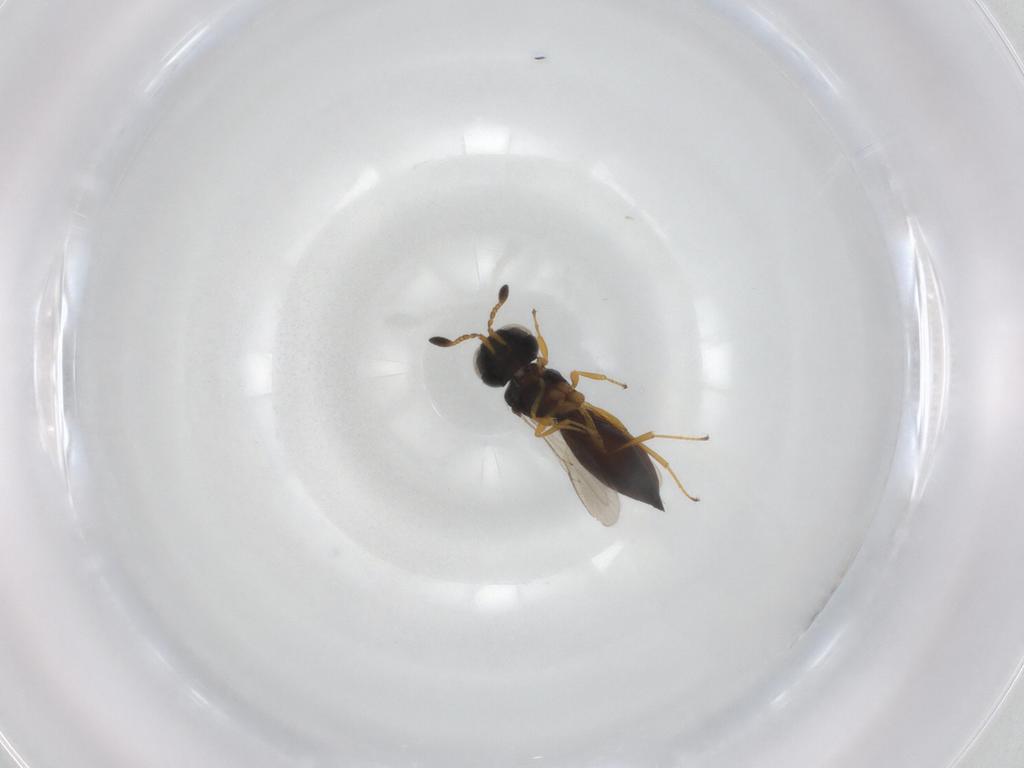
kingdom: Animalia
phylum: Arthropoda
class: Insecta
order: Hymenoptera
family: Scelionidae
